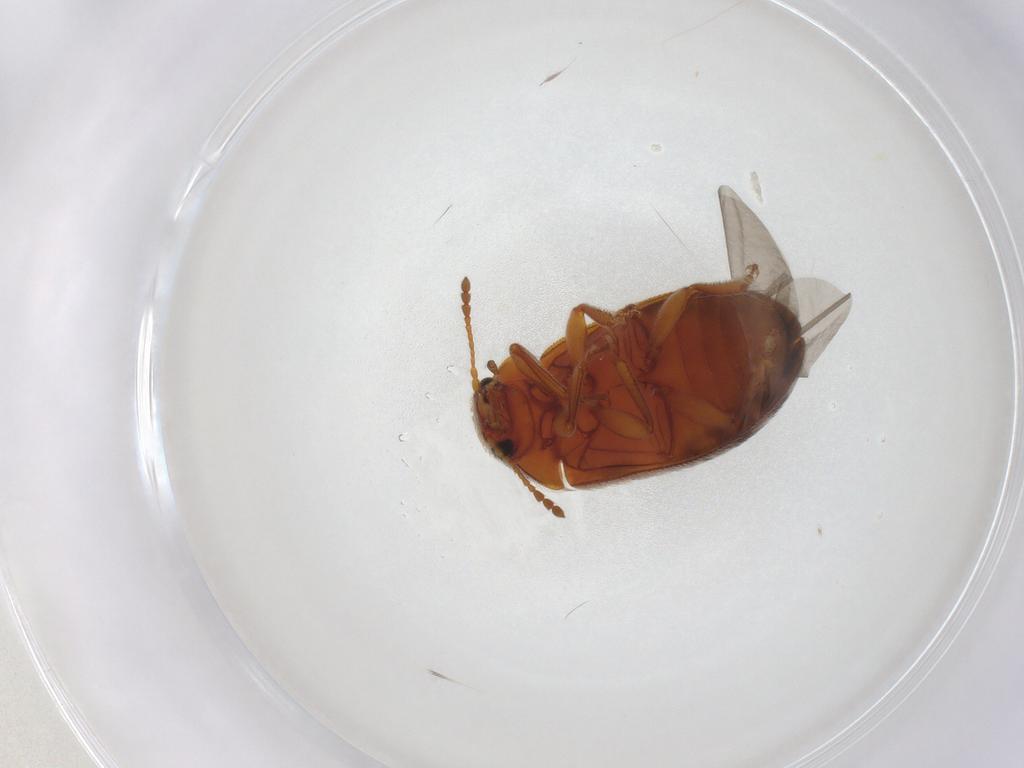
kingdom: Animalia
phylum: Arthropoda
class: Insecta
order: Coleoptera
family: Byturidae
